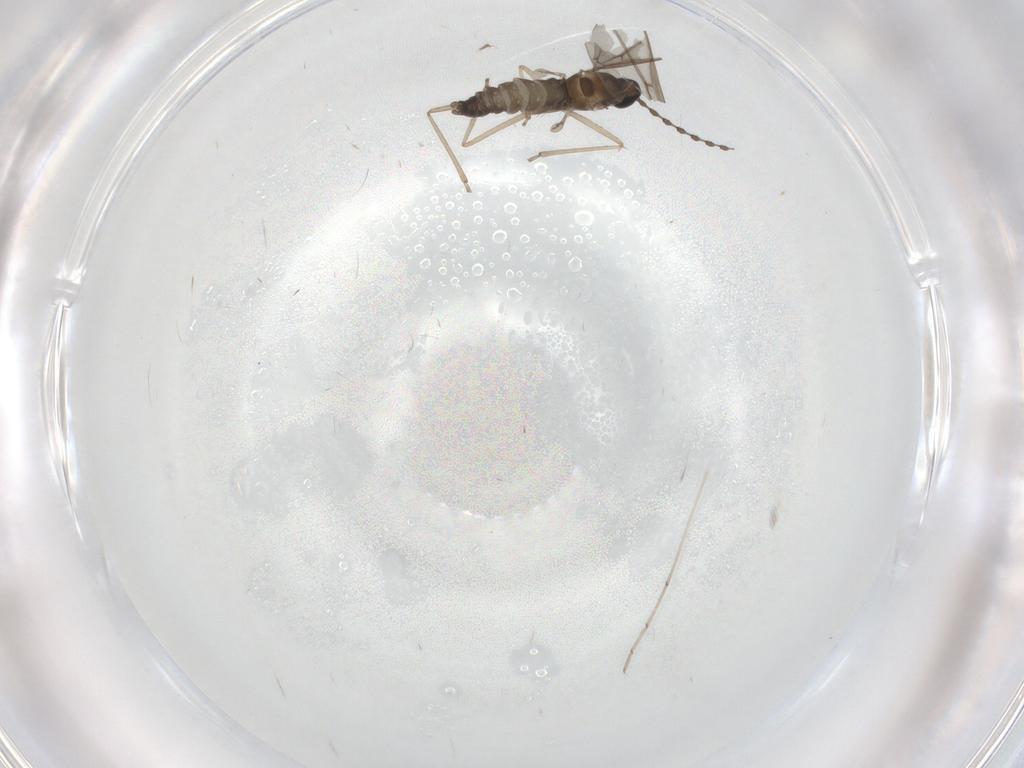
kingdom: Animalia
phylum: Arthropoda
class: Insecta
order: Diptera
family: Cecidomyiidae
